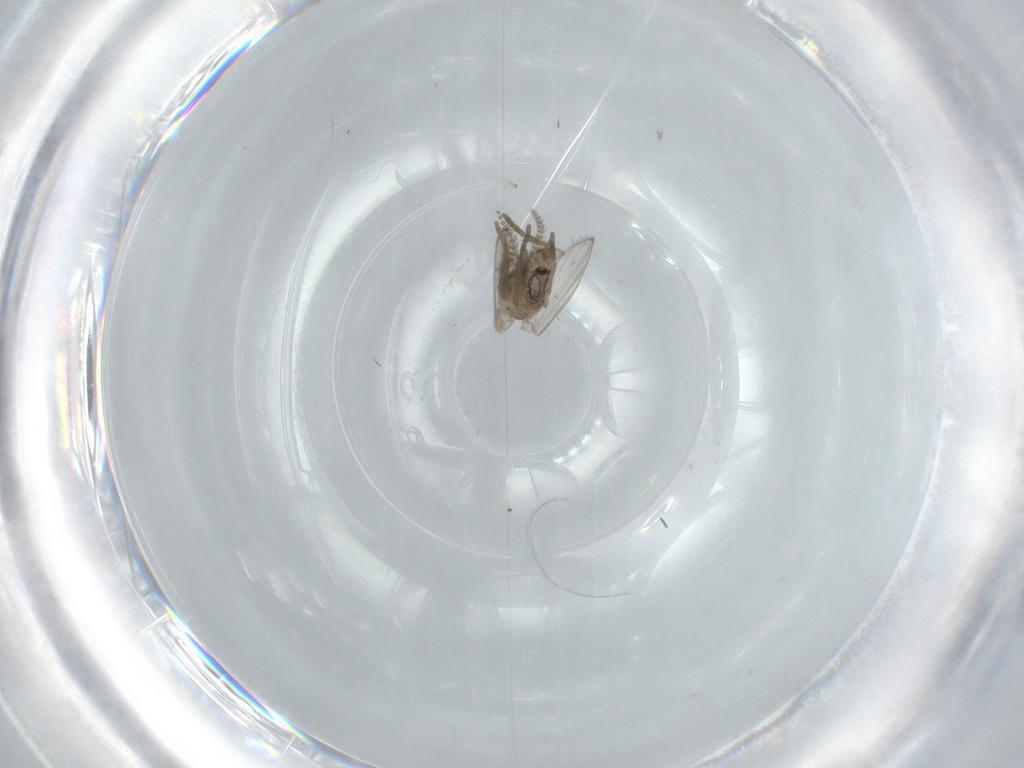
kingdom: Animalia
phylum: Arthropoda
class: Insecta
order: Diptera
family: Psychodidae
